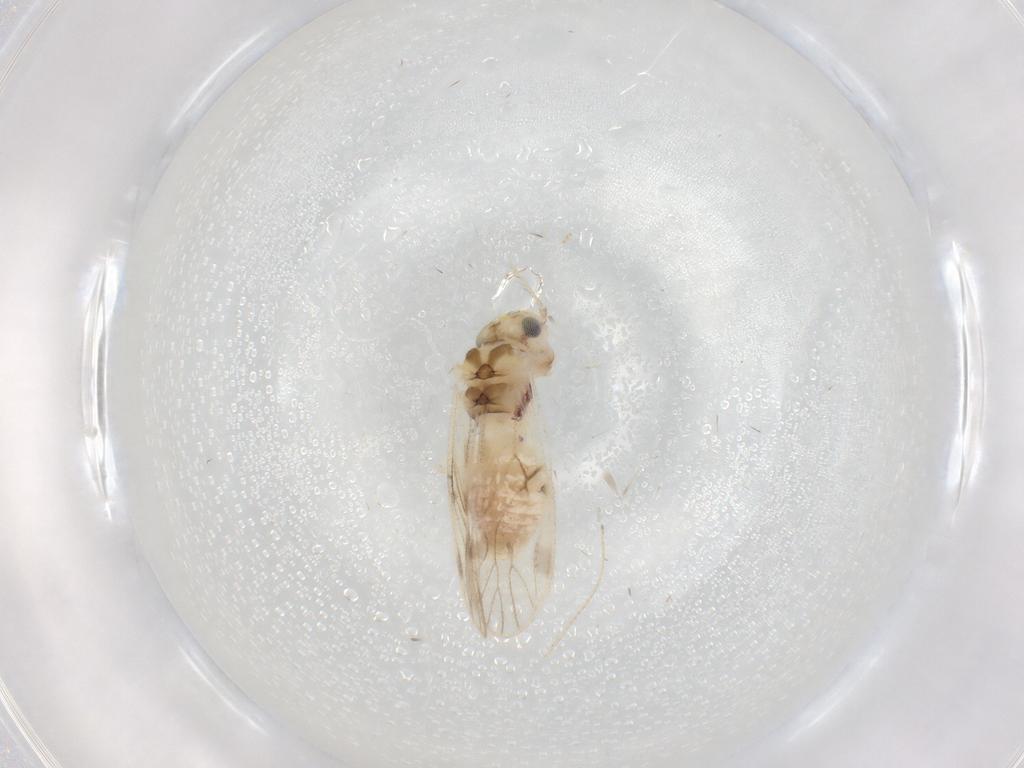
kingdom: Animalia
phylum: Arthropoda
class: Insecta
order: Psocodea
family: Caeciliusidae
